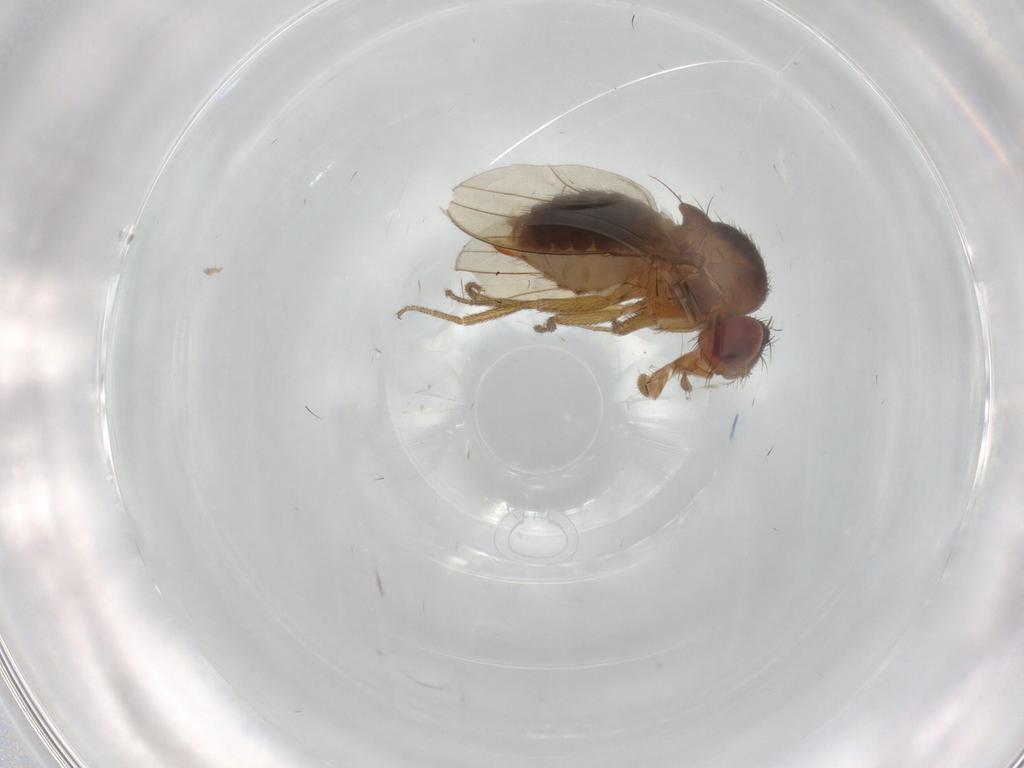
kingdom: Animalia
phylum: Arthropoda
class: Insecta
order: Diptera
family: Drosophilidae
